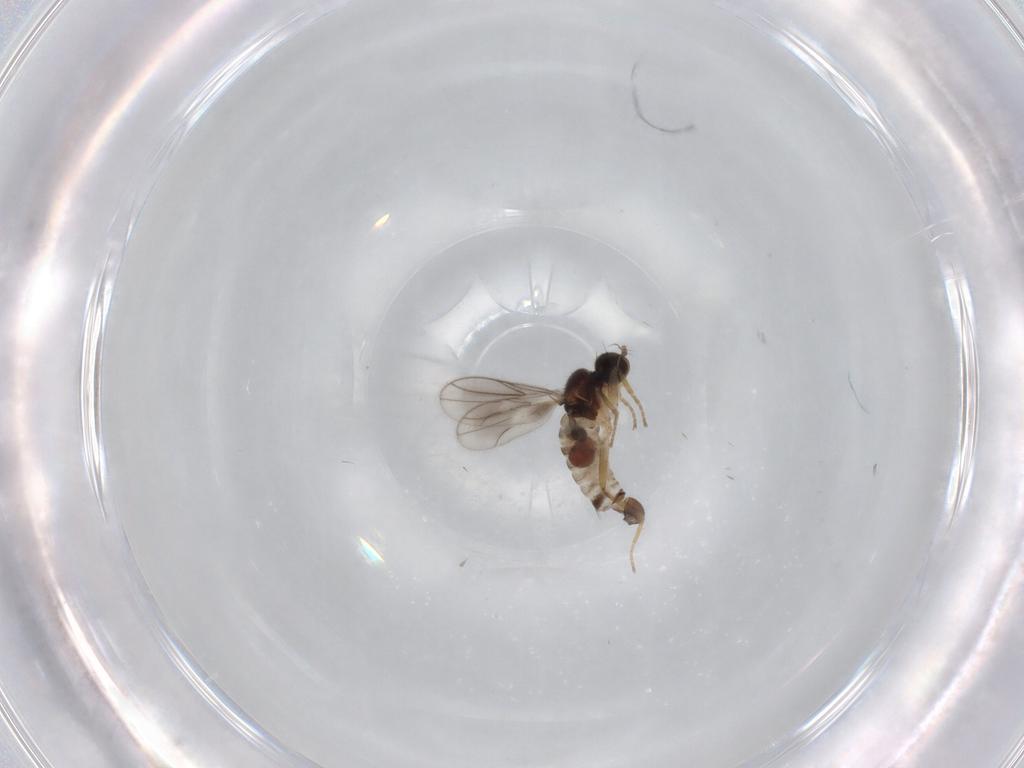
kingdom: Animalia
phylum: Arthropoda
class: Insecta
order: Diptera
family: Hybotidae
